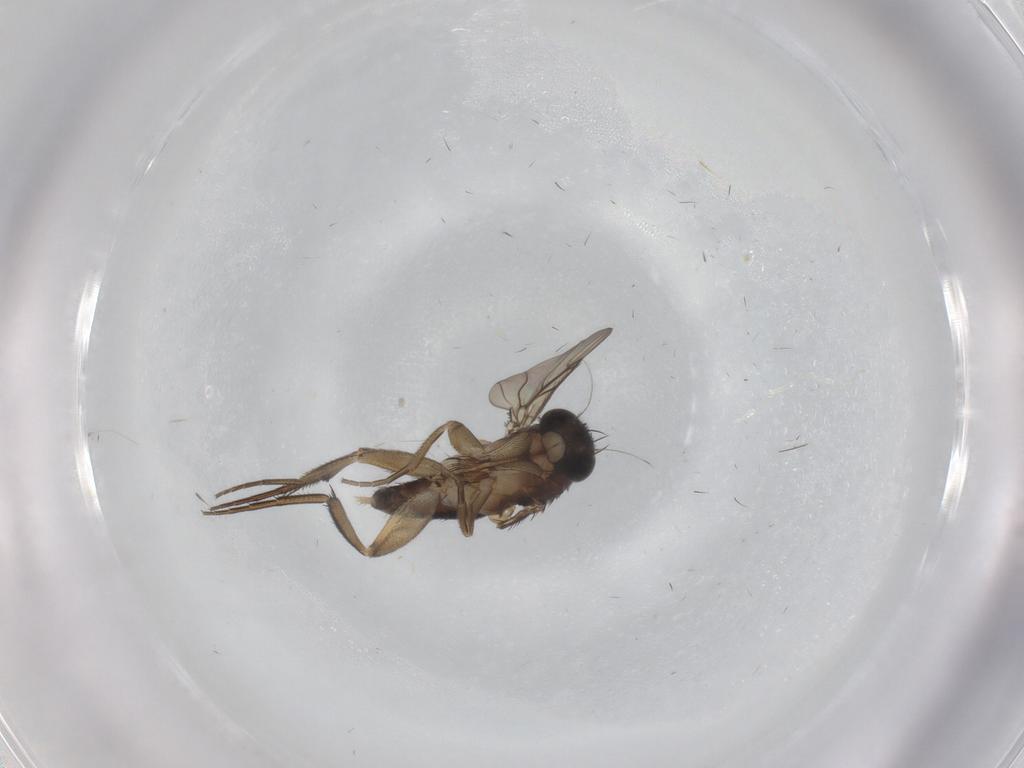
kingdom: Animalia
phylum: Arthropoda
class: Insecta
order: Diptera
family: Phoridae
